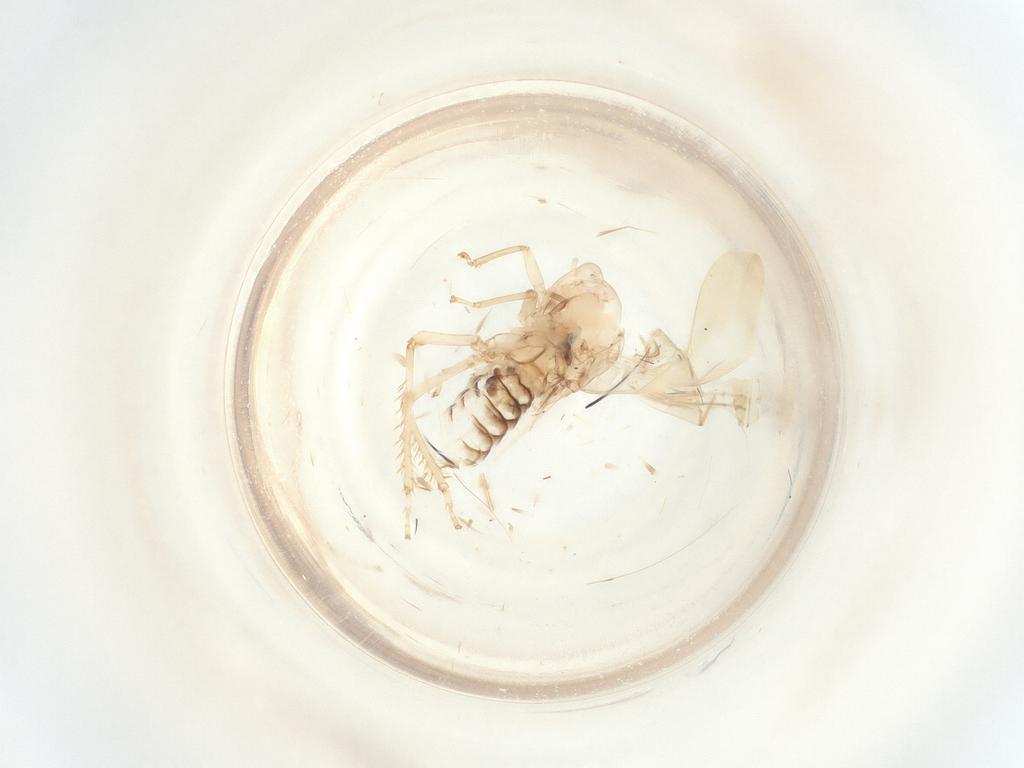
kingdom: Animalia
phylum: Arthropoda
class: Insecta
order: Hemiptera
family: Cicadellidae
